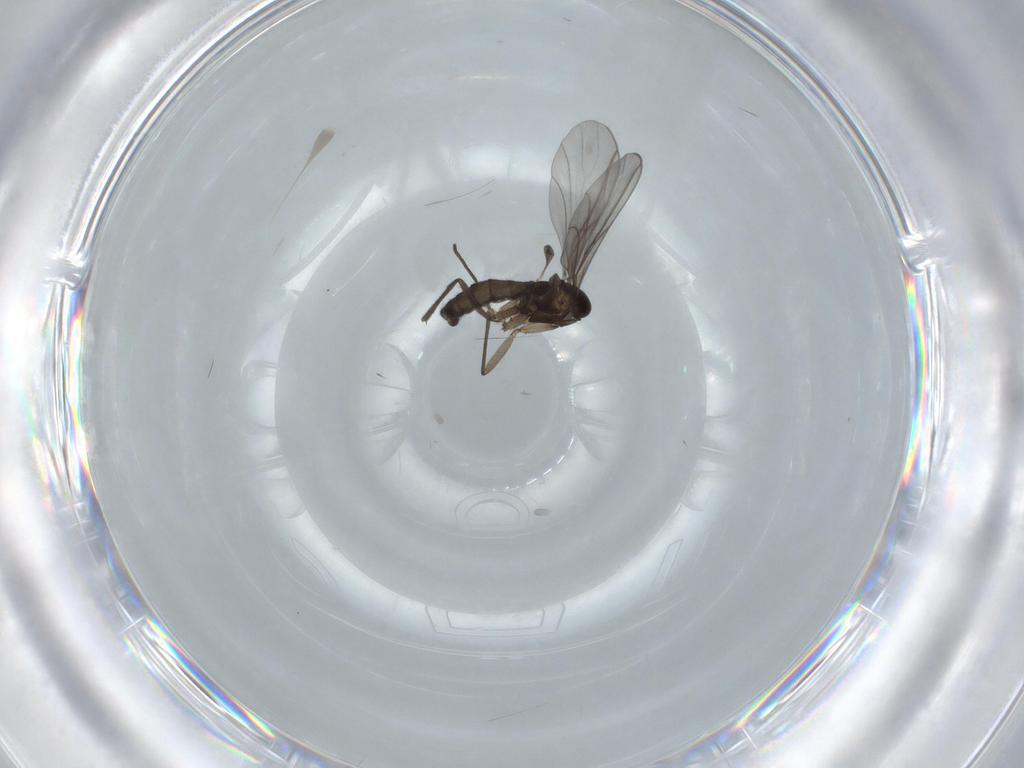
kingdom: Animalia
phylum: Arthropoda
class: Insecta
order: Diptera
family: Sciaridae
